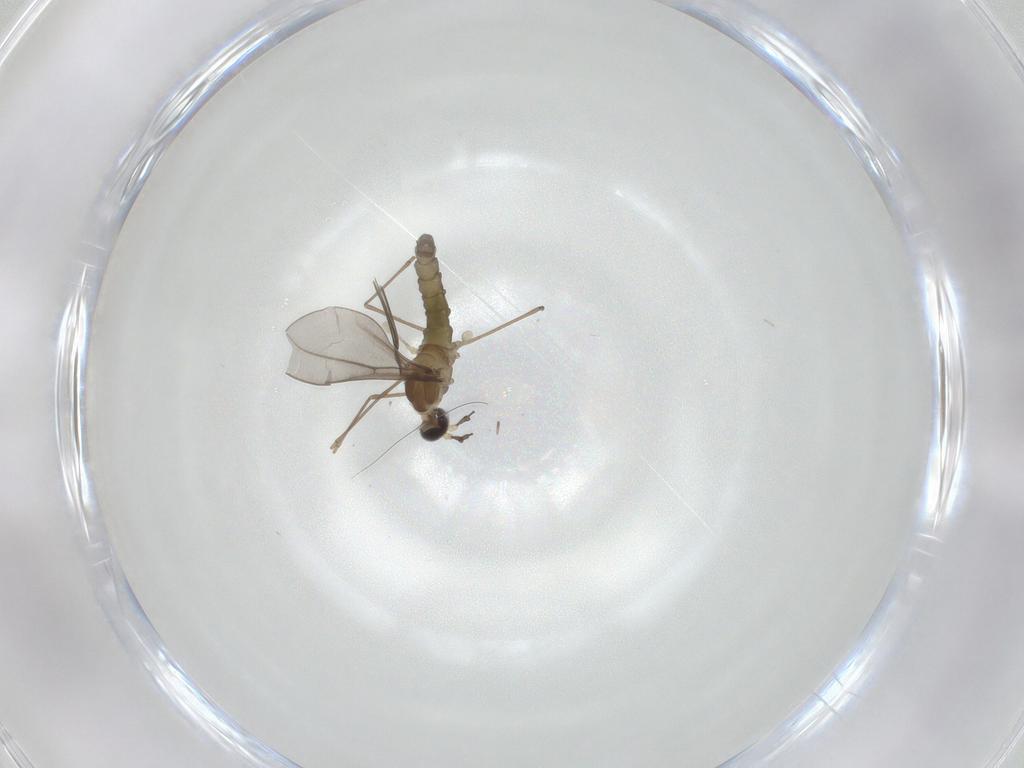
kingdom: Animalia
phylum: Arthropoda
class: Insecta
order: Diptera
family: Cecidomyiidae
